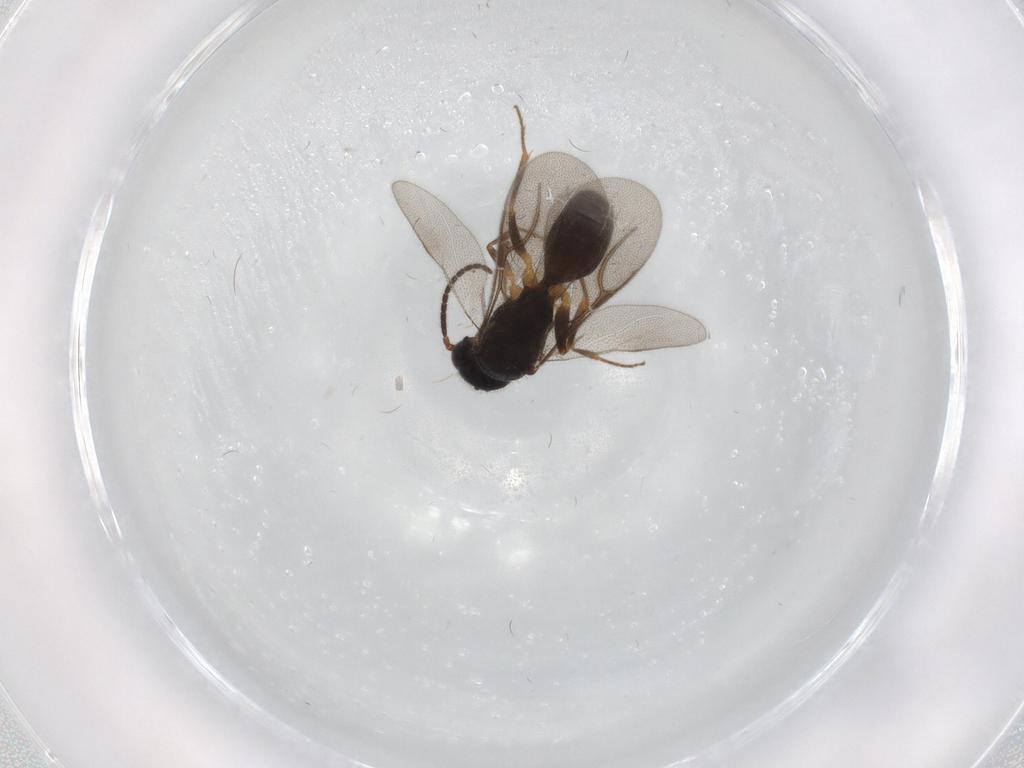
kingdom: Animalia
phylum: Arthropoda
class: Insecta
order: Hymenoptera
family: Bethylidae
